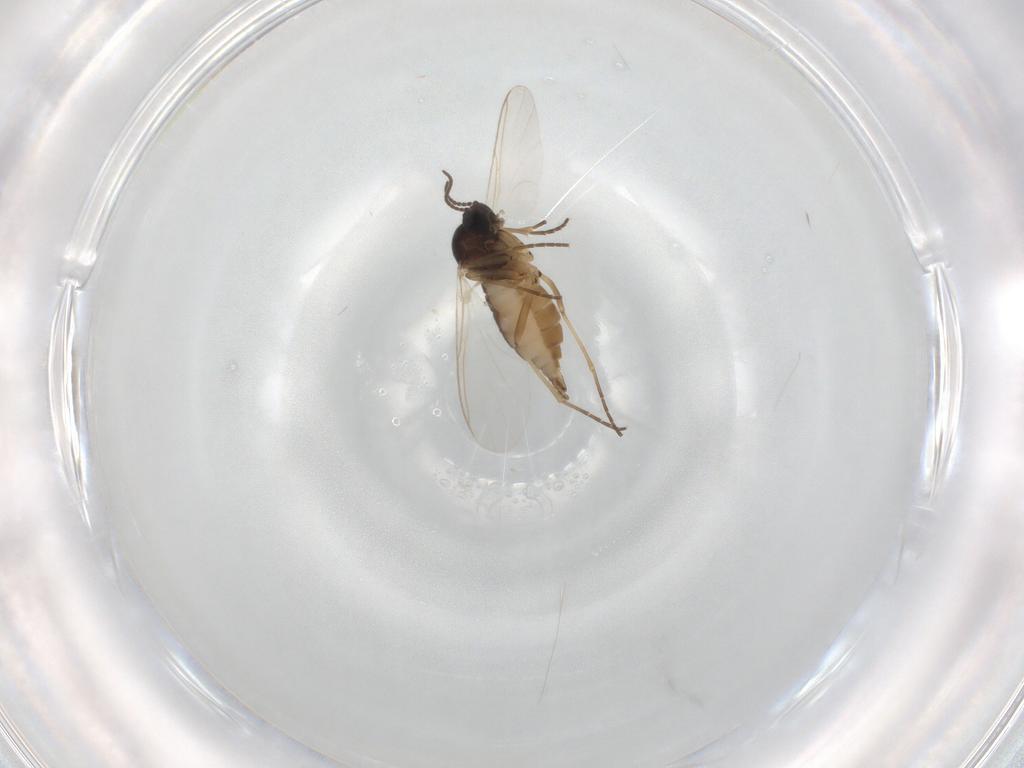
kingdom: Animalia
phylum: Arthropoda
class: Insecta
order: Diptera
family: Sciaridae
